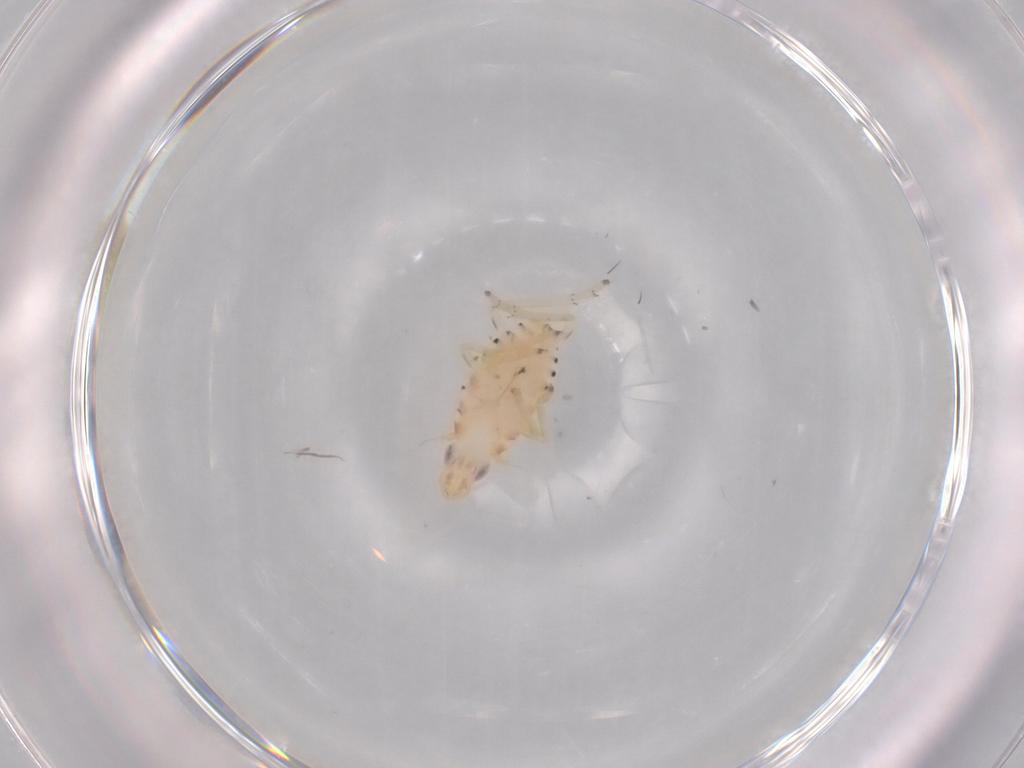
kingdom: Animalia
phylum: Arthropoda
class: Insecta
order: Hemiptera
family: Tropiduchidae
